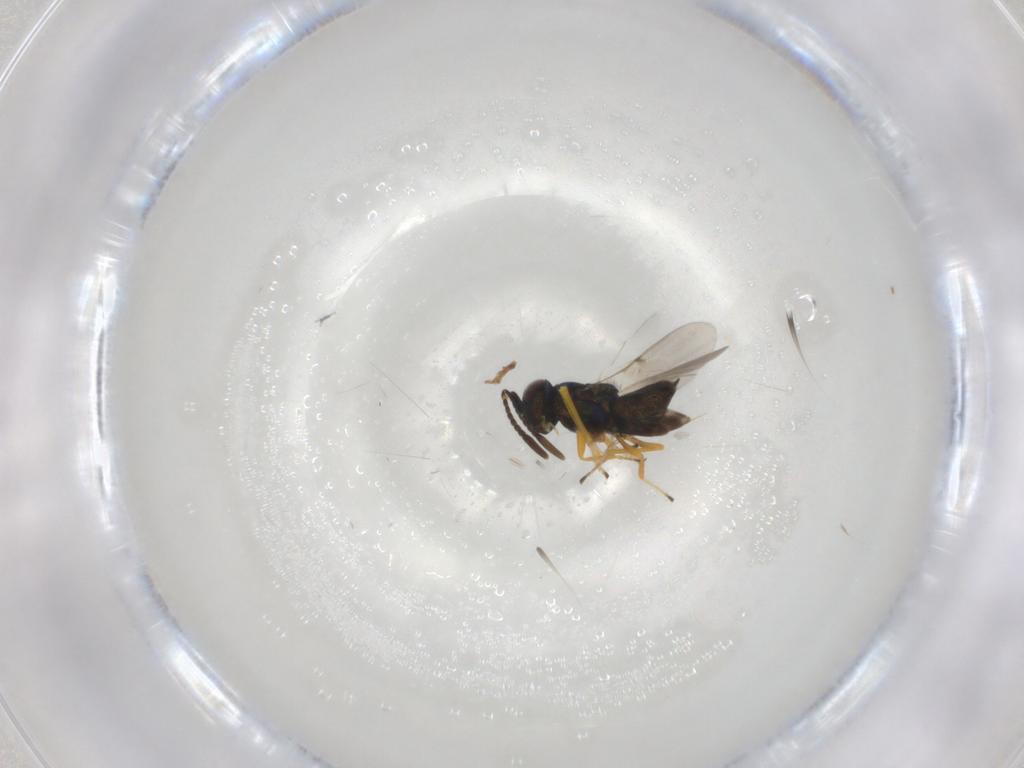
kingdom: Animalia
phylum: Arthropoda
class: Insecta
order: Hymenoptera
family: Encyrtidae
